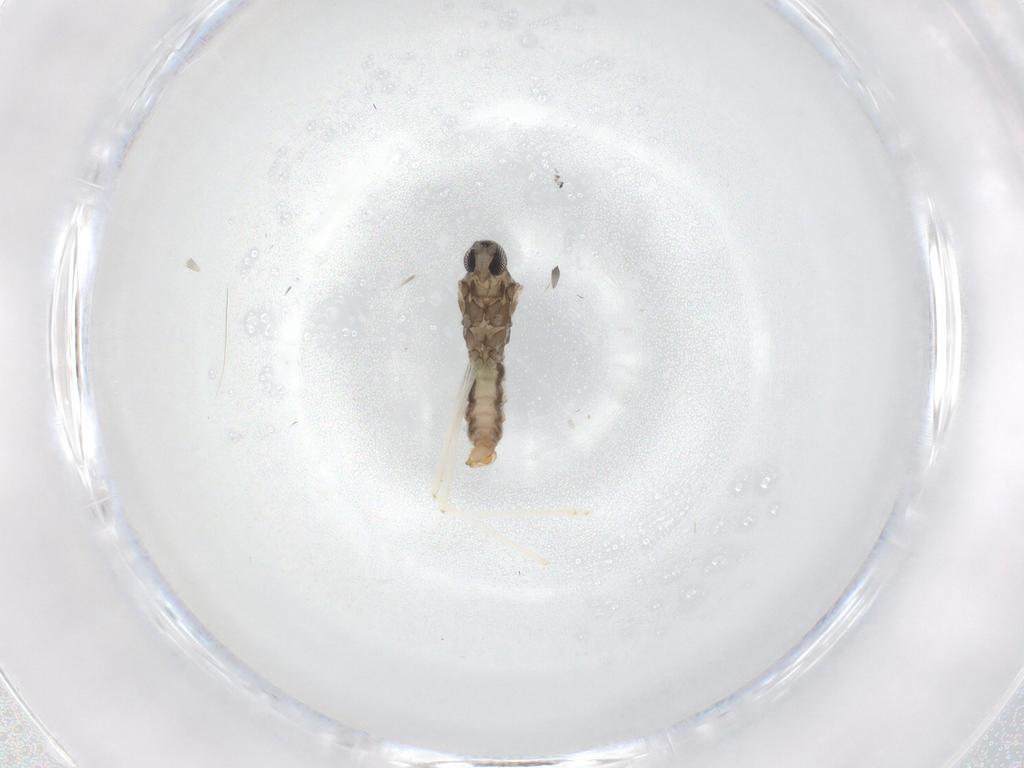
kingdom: Animalia
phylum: Arthropoda
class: Insecta
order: Diptera
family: Cecidomyiidae
